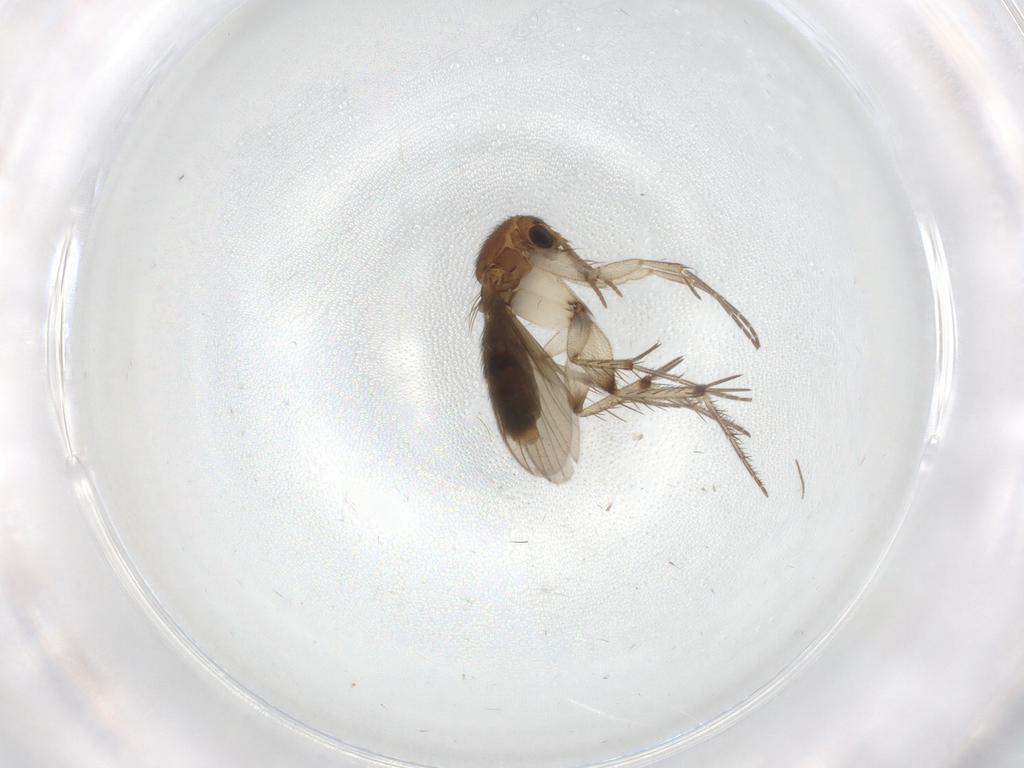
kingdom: Animalia
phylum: Arthropoda
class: Insecta
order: Diptera
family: Mycetophilidae
